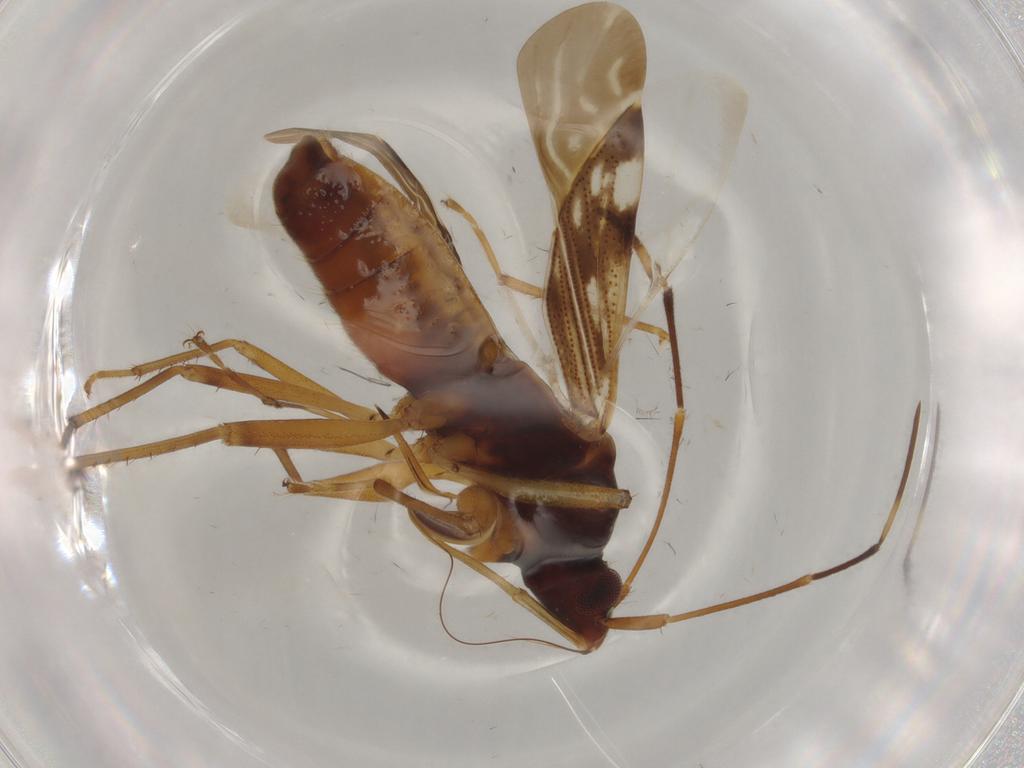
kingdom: Animalia
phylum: Arthropoda
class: Insecta
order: Hemiptera
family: Rhyparochromidae
